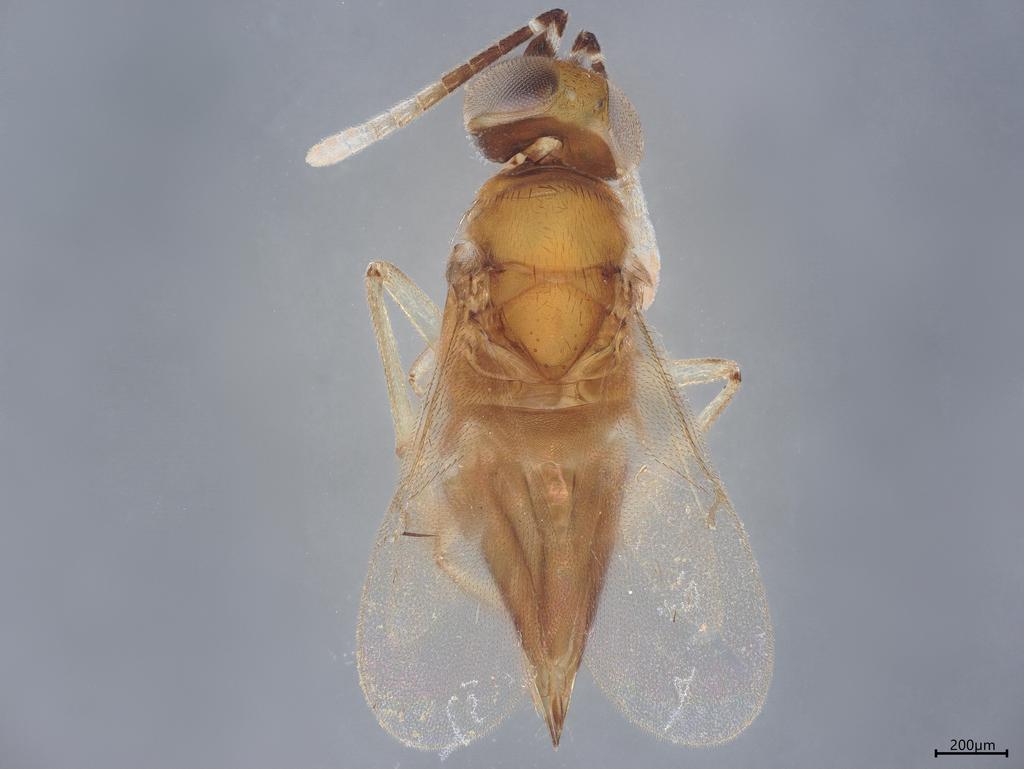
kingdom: Animalia
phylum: Arthropoda
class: Insecta
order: Hymenoptera
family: Encyrtidae
